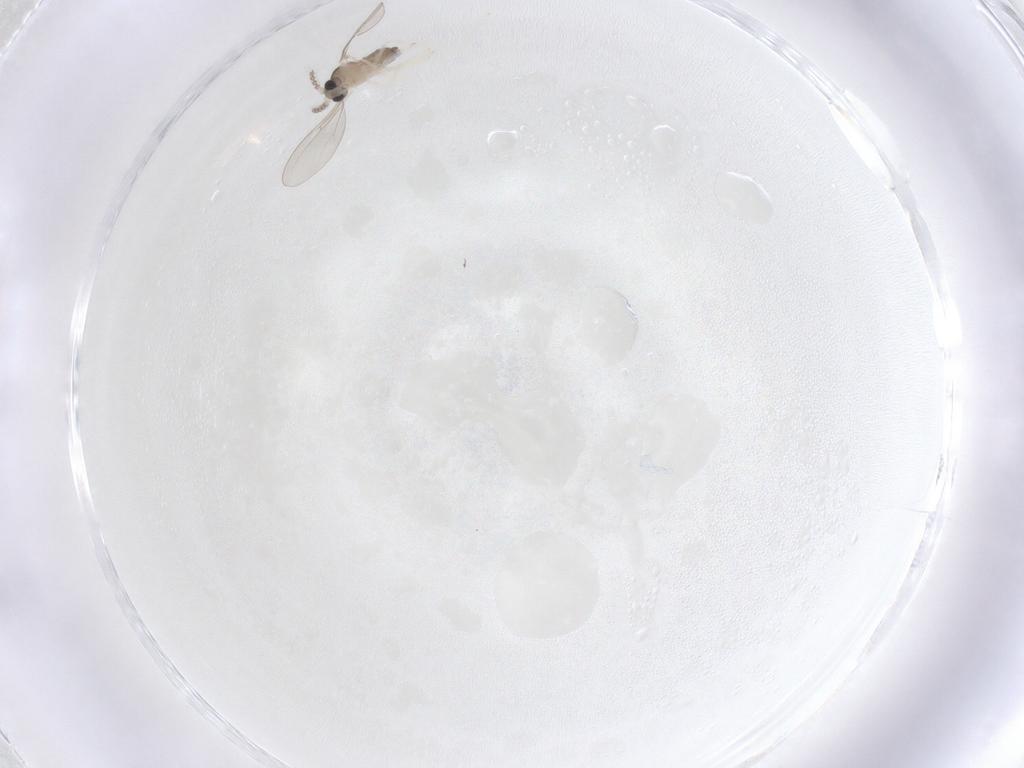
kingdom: Animalia
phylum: Arthropoda
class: Insecta
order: Diptera
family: Cecidomyiidae
